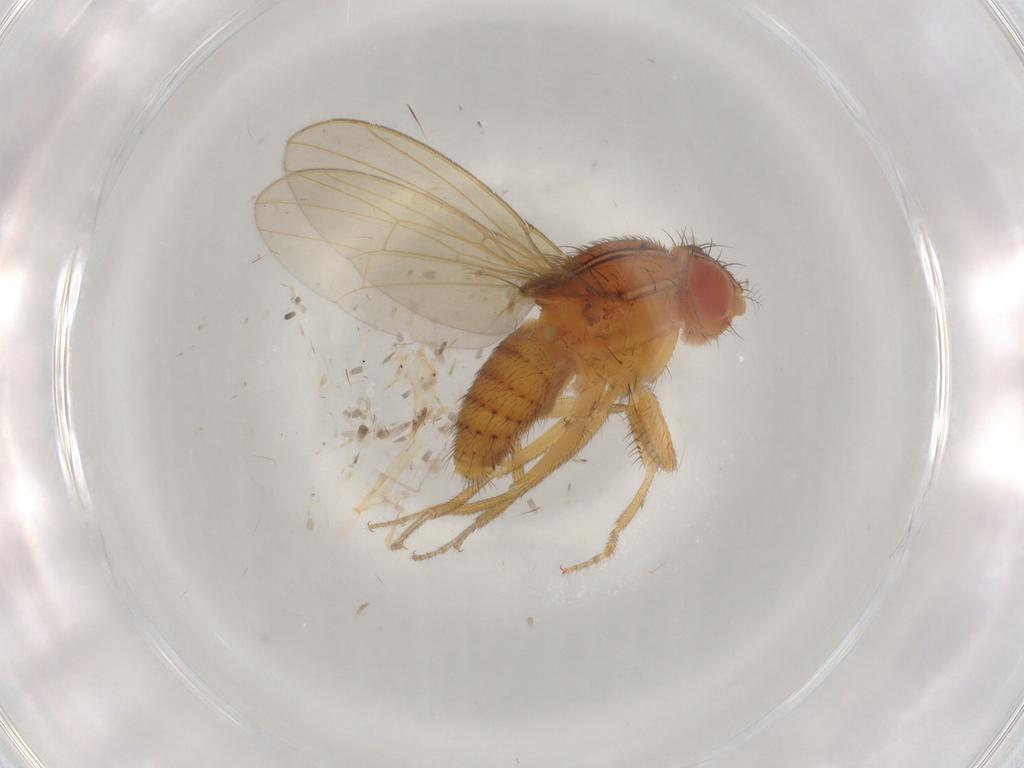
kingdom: Animalia
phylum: Arthropoda
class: Insecta
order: Diptera
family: Drosophilidae
